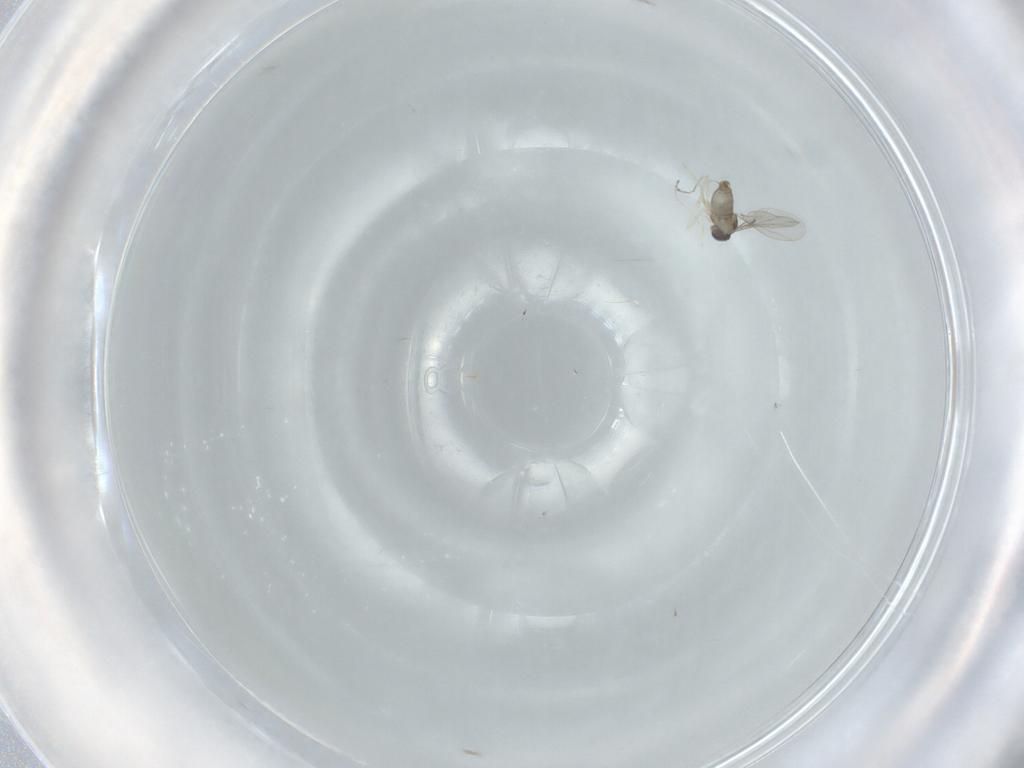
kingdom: Animalia
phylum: Arthropoda
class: Insecta
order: Diptera
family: Cecidomyiidae
